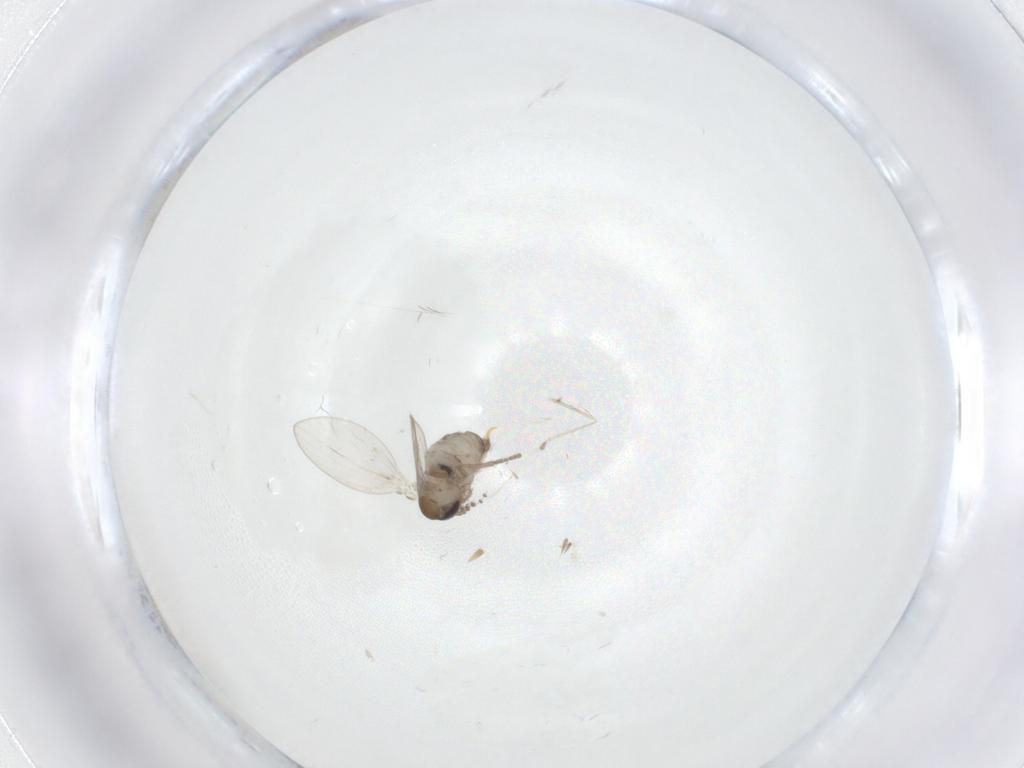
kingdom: Animalia
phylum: Arthropoda
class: Insecta
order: Diptera
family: Psychodidae
